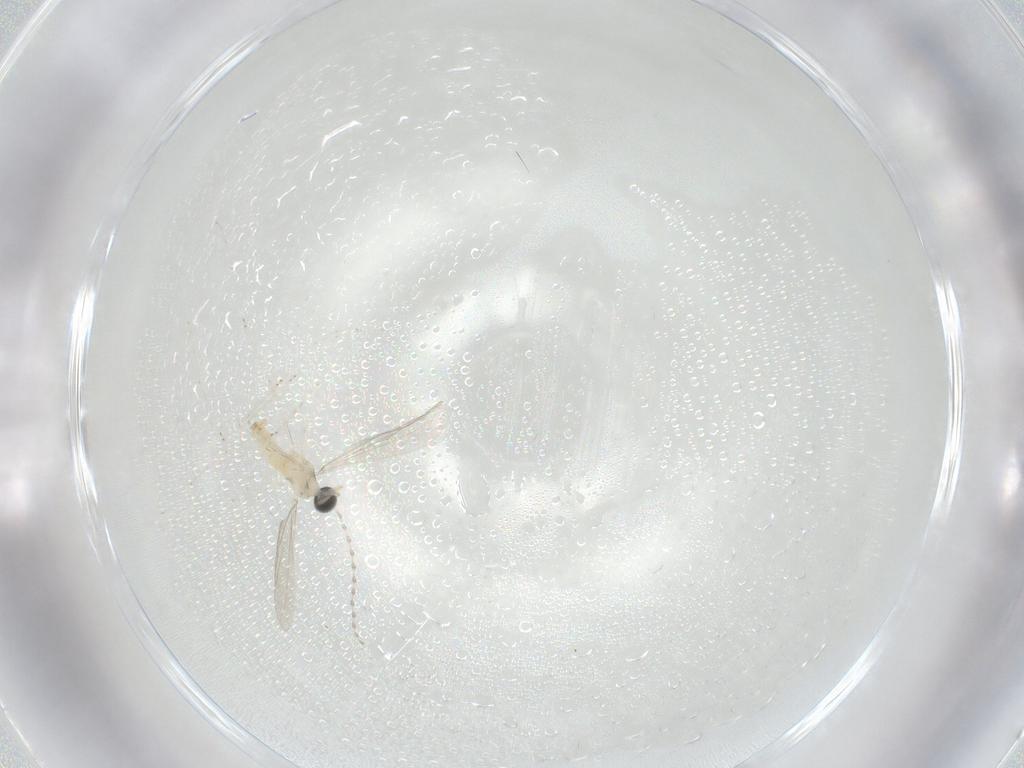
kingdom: Animalia
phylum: Arthropoda
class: Insecta
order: Diptera
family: Cecidomyiidae
